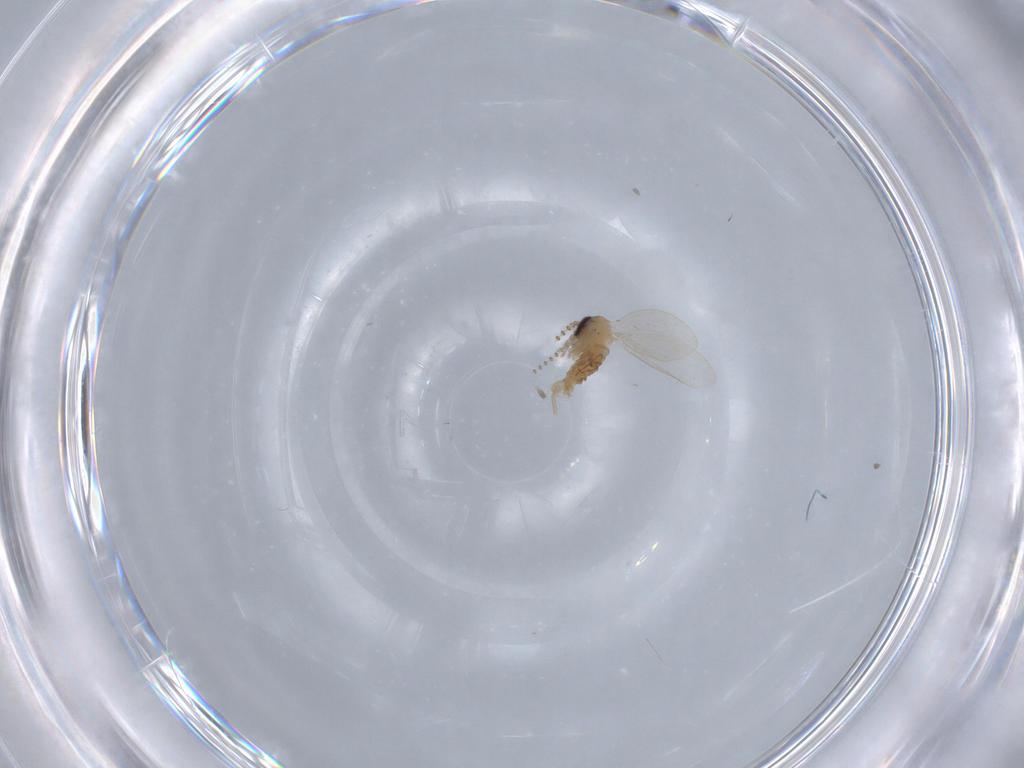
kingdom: Animalia
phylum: Arthropoda
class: Insecta
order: Diptera
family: Psychodidae
